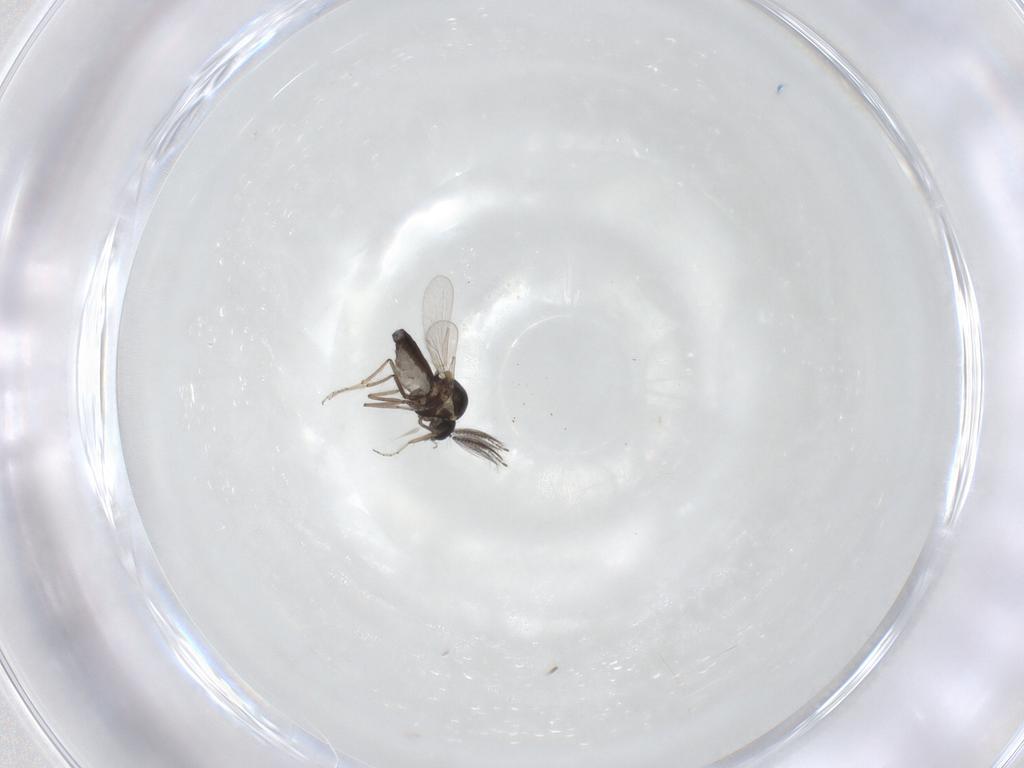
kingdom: Animalia
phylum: Arthropoda
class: Insecta
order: Diptera
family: Ceratopogonidae
